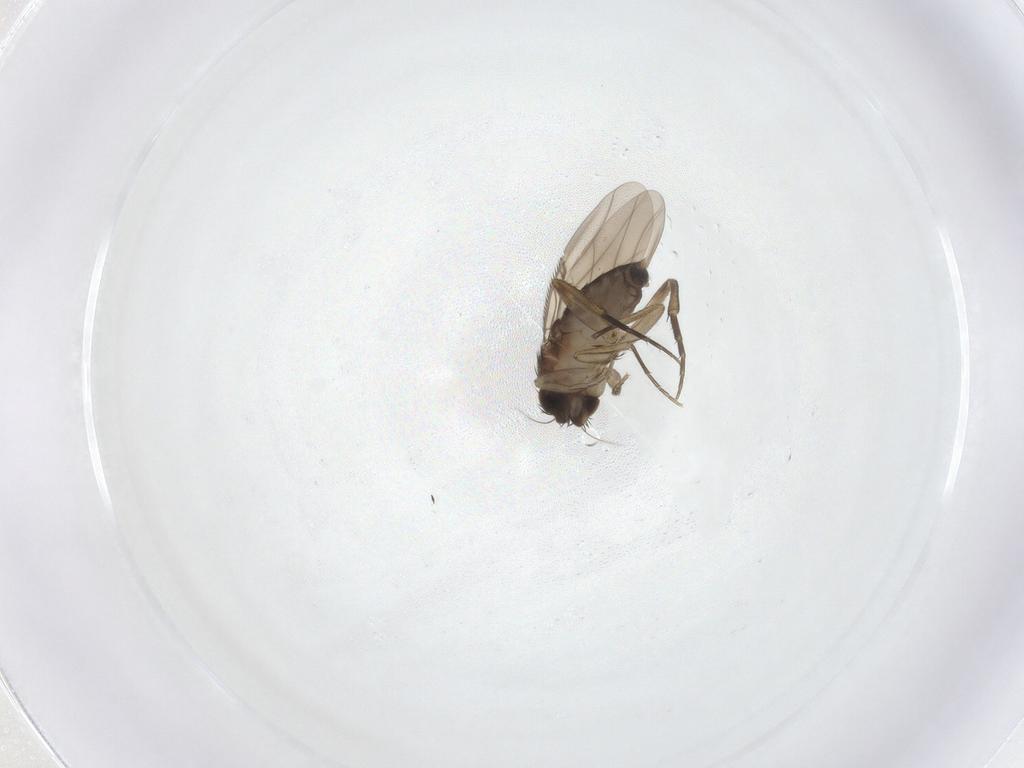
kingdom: Animalia
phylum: Arthropoda
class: Insecta
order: Diptera
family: Phoridae
